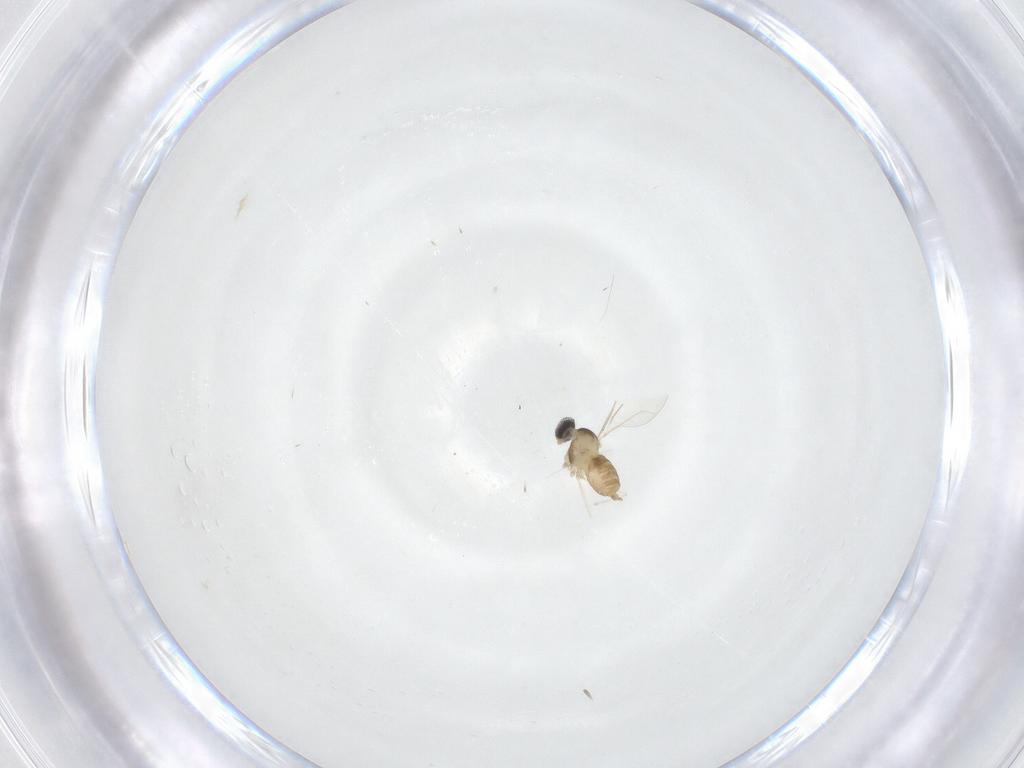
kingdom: Animalia
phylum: Arthropoda
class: Insecta
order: Diptera
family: Cecidomyiidae
